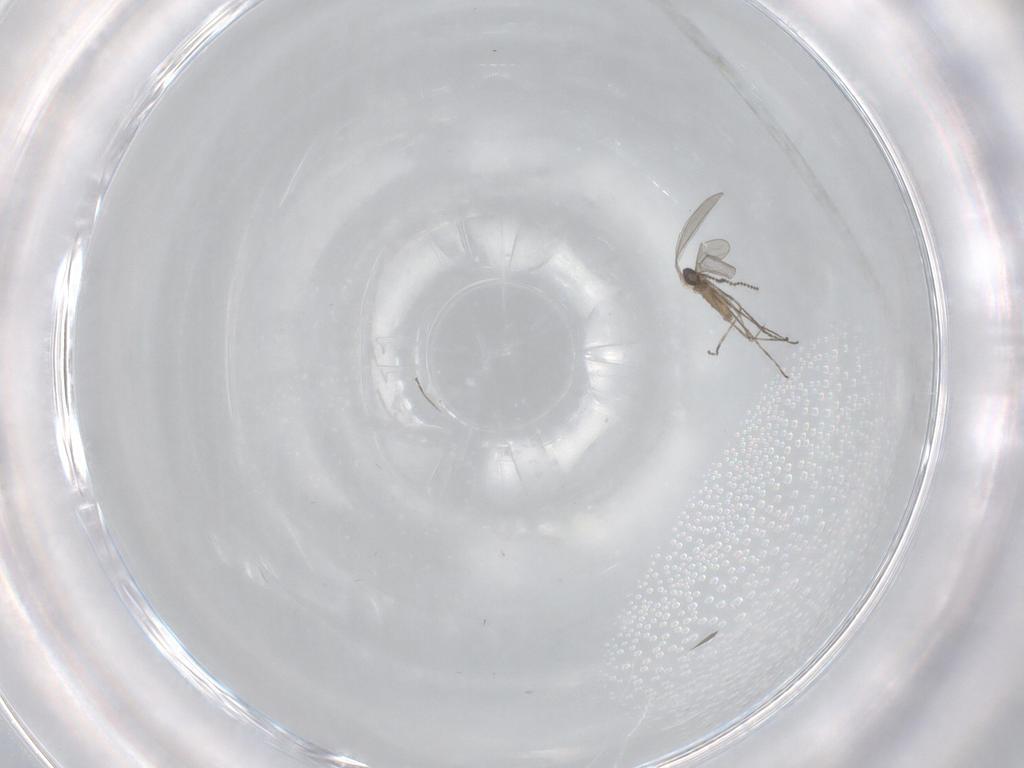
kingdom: Animalia
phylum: Arthropoda
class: Insecta
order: Diptera
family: Cecidomyiidae
